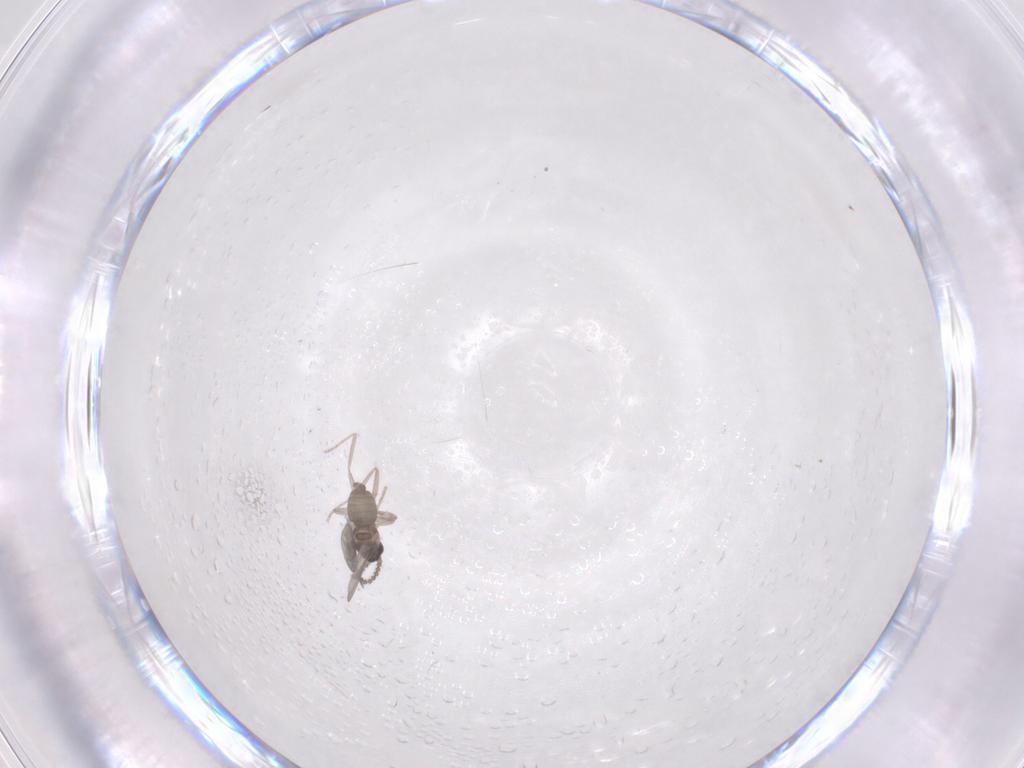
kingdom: Animalia
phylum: Arthropoda
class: Insecta
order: Diptera
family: Cecidomyiidae
